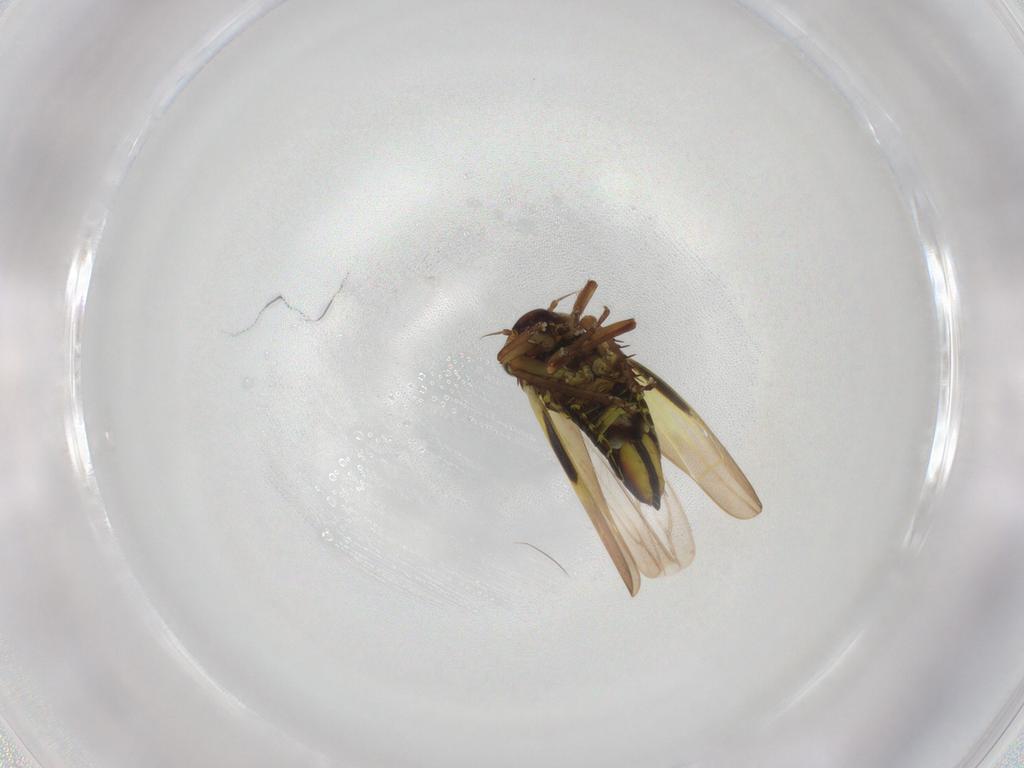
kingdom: Animalia
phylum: Arthropoda
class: Insecta
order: Hemiptera
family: Cicadellidae
